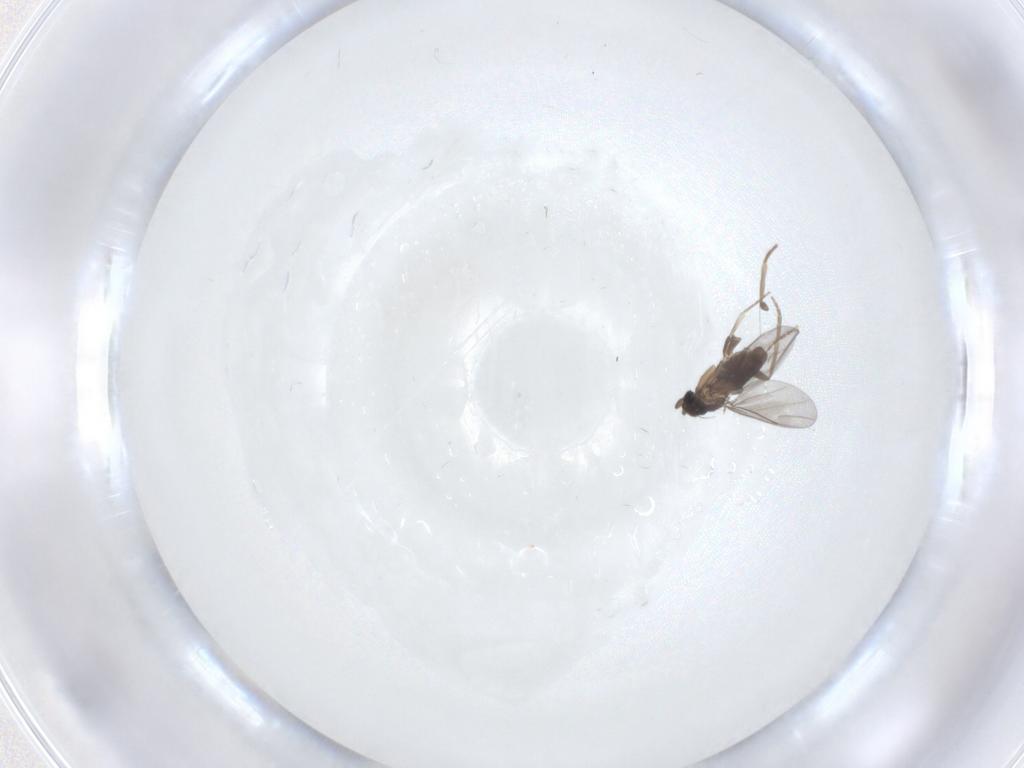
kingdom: Animalia
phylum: Arthropoda
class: Insecta
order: Diptera
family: Cecidomyiidae
